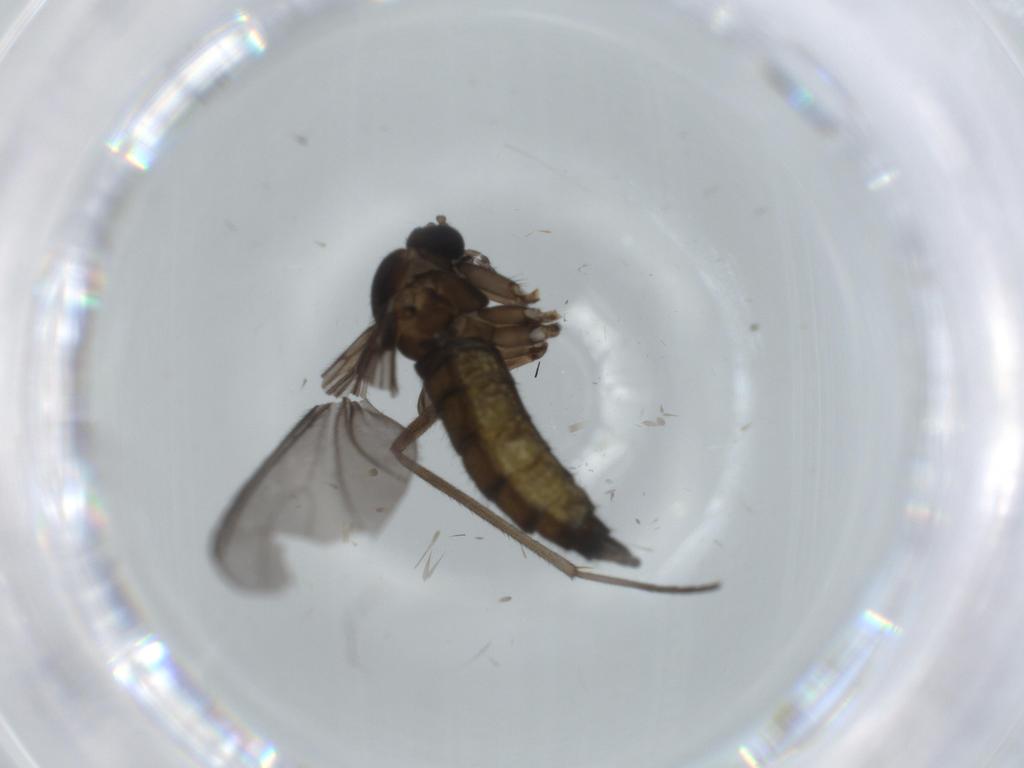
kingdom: Animalia
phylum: Arthropoda
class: Insecta
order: Diptera
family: Sciaridae
